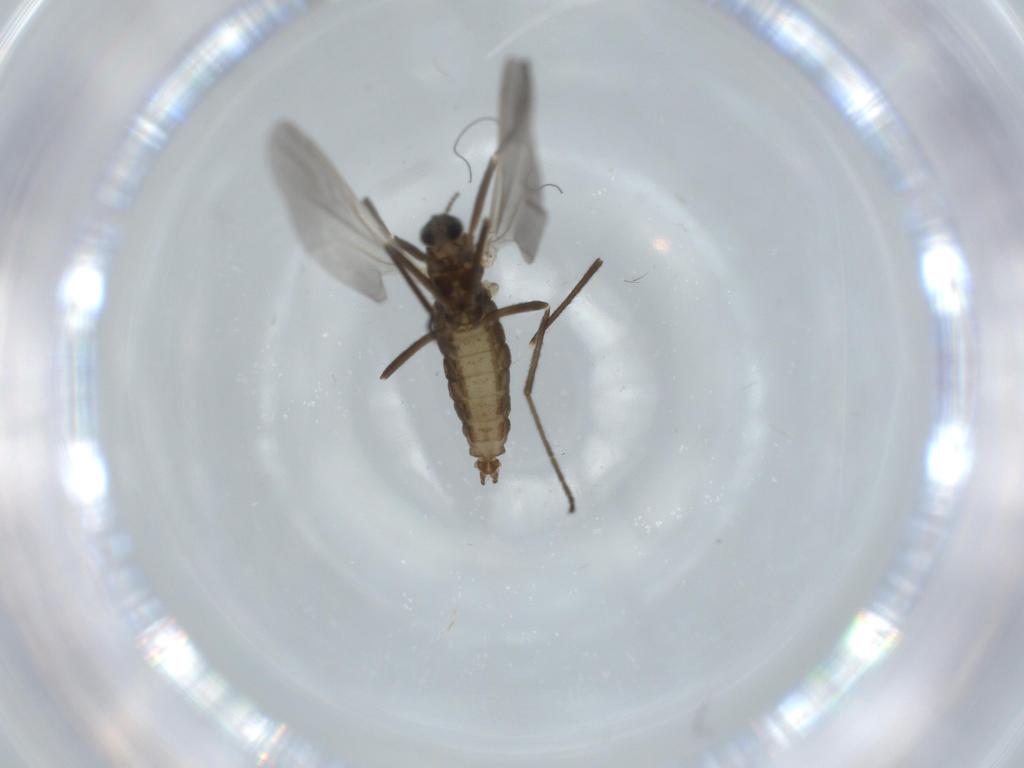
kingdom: Animalia
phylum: Arthropoda
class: Insecta
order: Diptera
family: Cecidomyiidae
